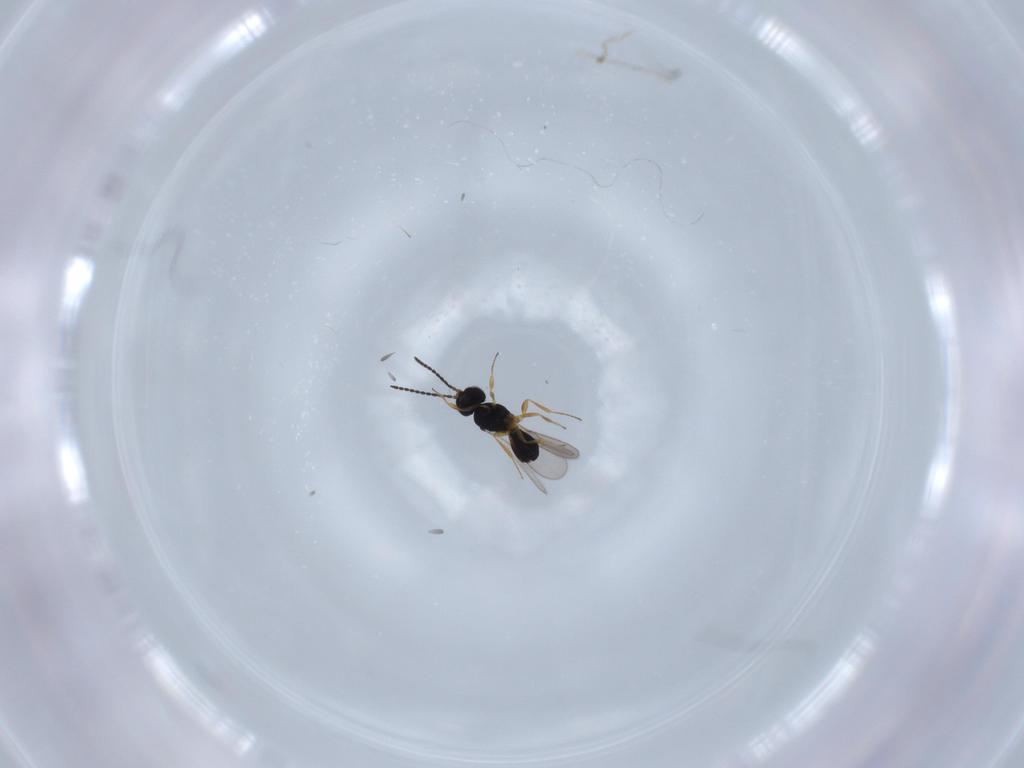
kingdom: Animalia
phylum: Arthropoda
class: Insecta
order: Hymenoptera
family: Scelionidae
